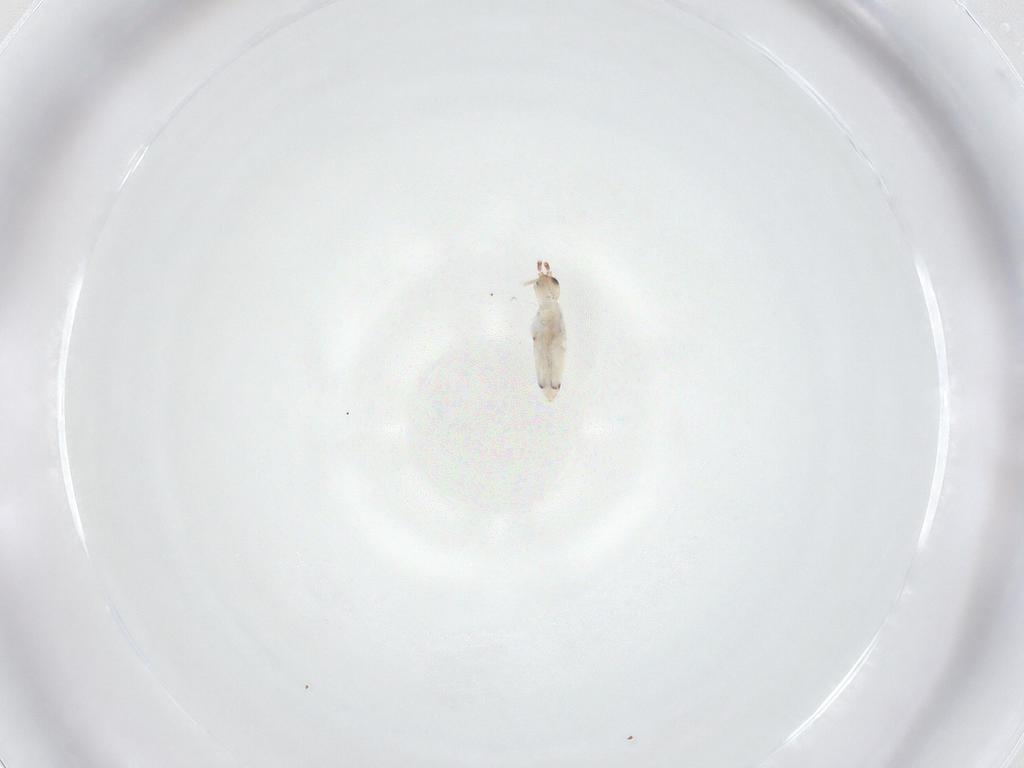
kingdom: Animalia
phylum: Arthropoda
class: Collembola
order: Entomobryomorpha
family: Entomobryidae
